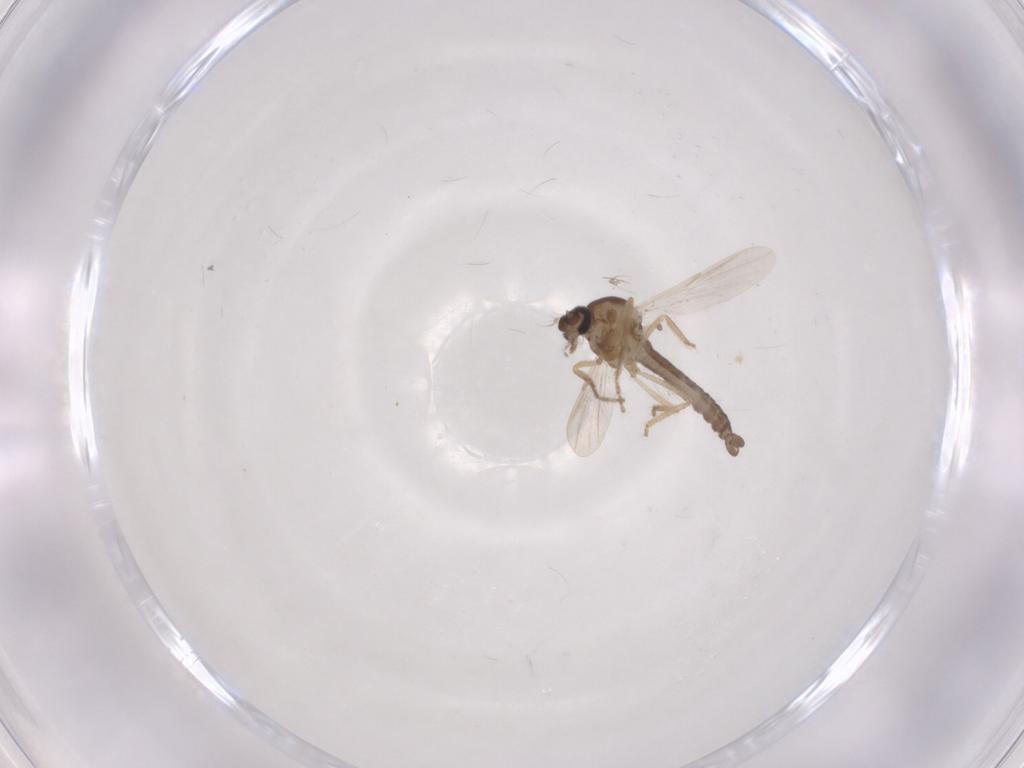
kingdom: Animalia
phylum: Arthropoda
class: Insecta
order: Diptera
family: Ceratopogonidae
